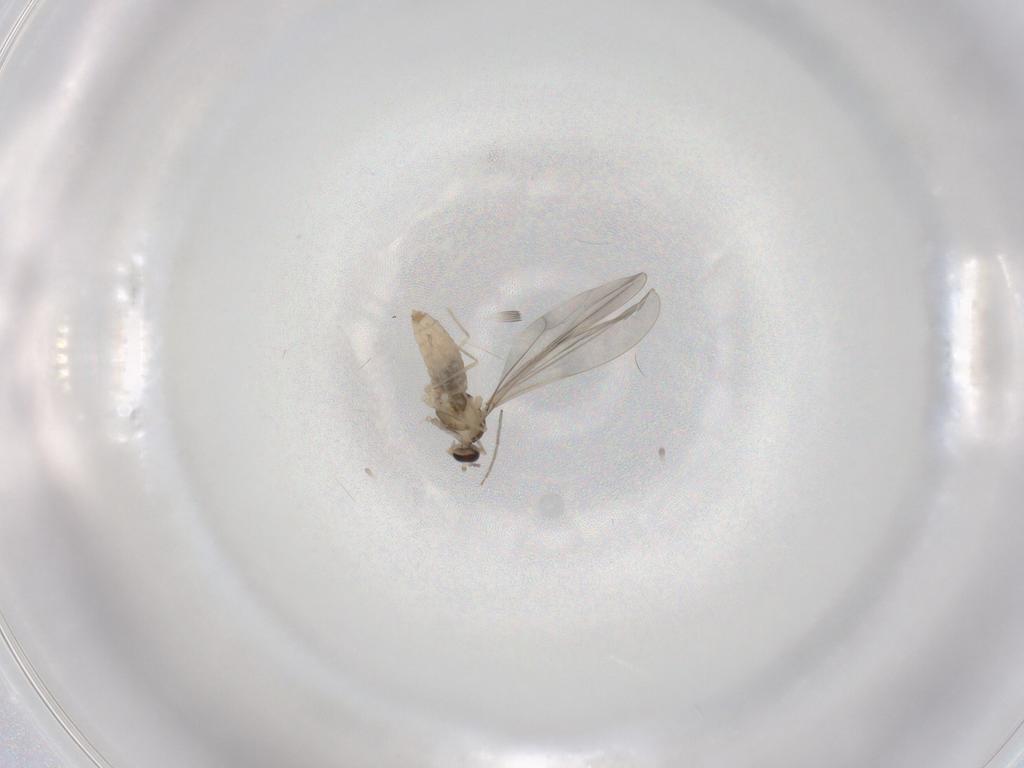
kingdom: Animalia
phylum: Arthropoda
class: Insecta
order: Diptera
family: Chironomidae
